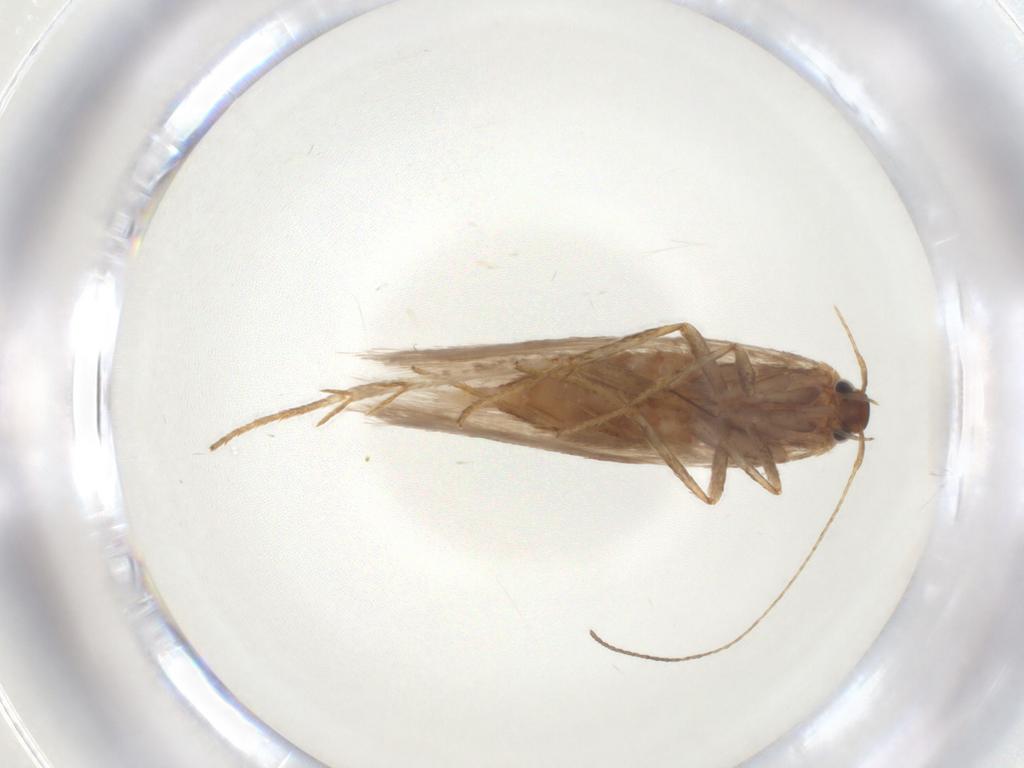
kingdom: Animalia
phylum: Arthropoda
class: Insecta
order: Lepidoptera
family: Erebidae
